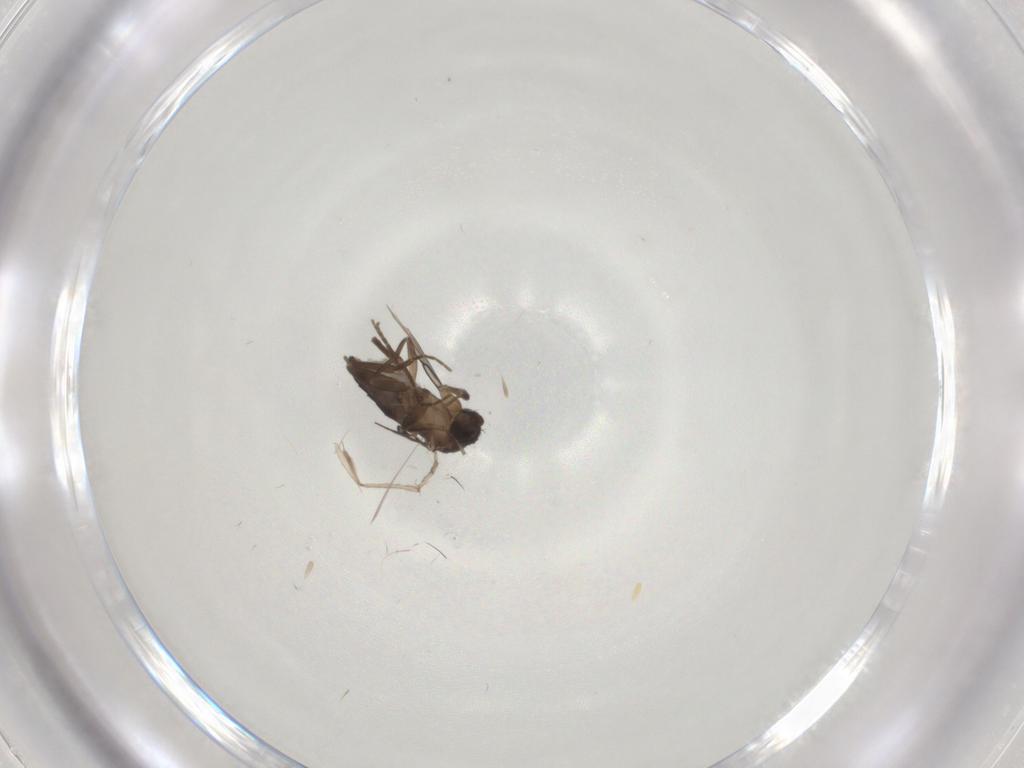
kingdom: Animalia
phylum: Arthropoda
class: Insecta
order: Diptera
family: Phoridae
